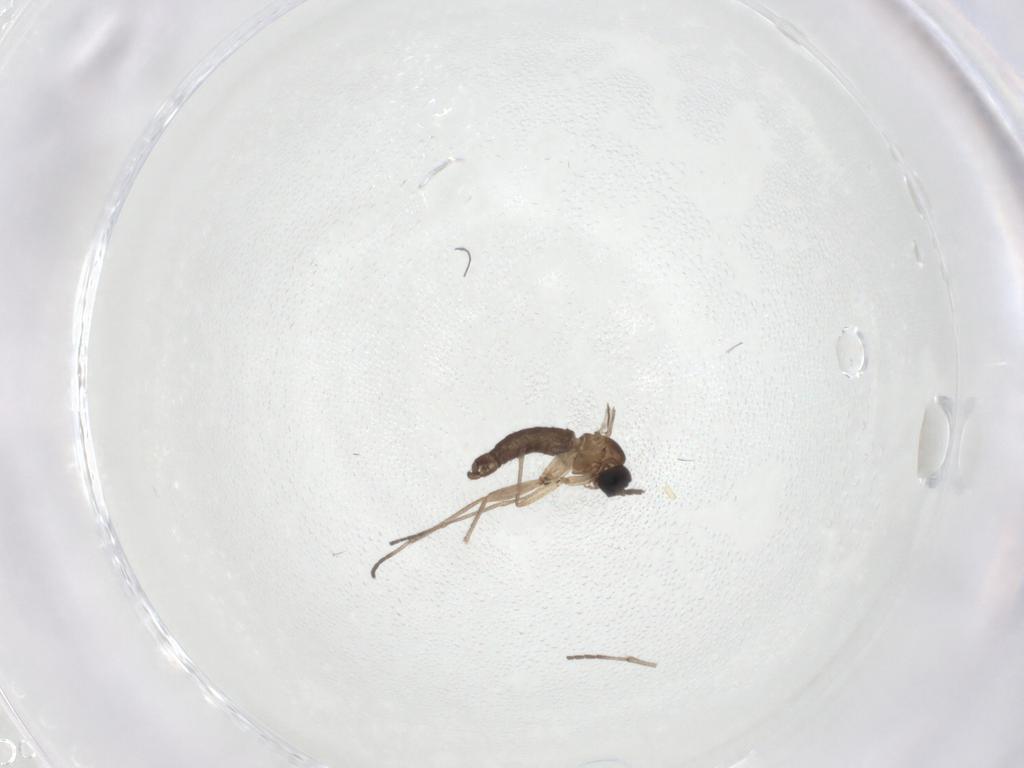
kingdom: Animalia
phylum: Arthropoda
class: Insecta
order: Diptera
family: Sciaridae
